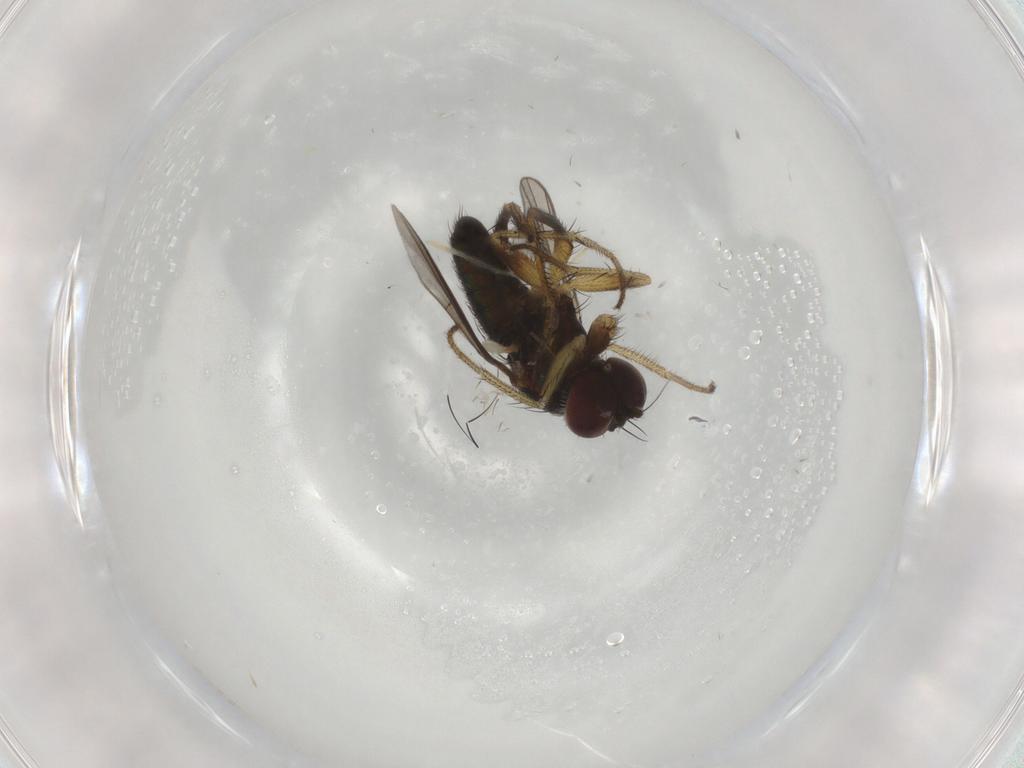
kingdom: Animalia
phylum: Arthropoda
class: Insecta
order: Diptera
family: Dolichopodidae
